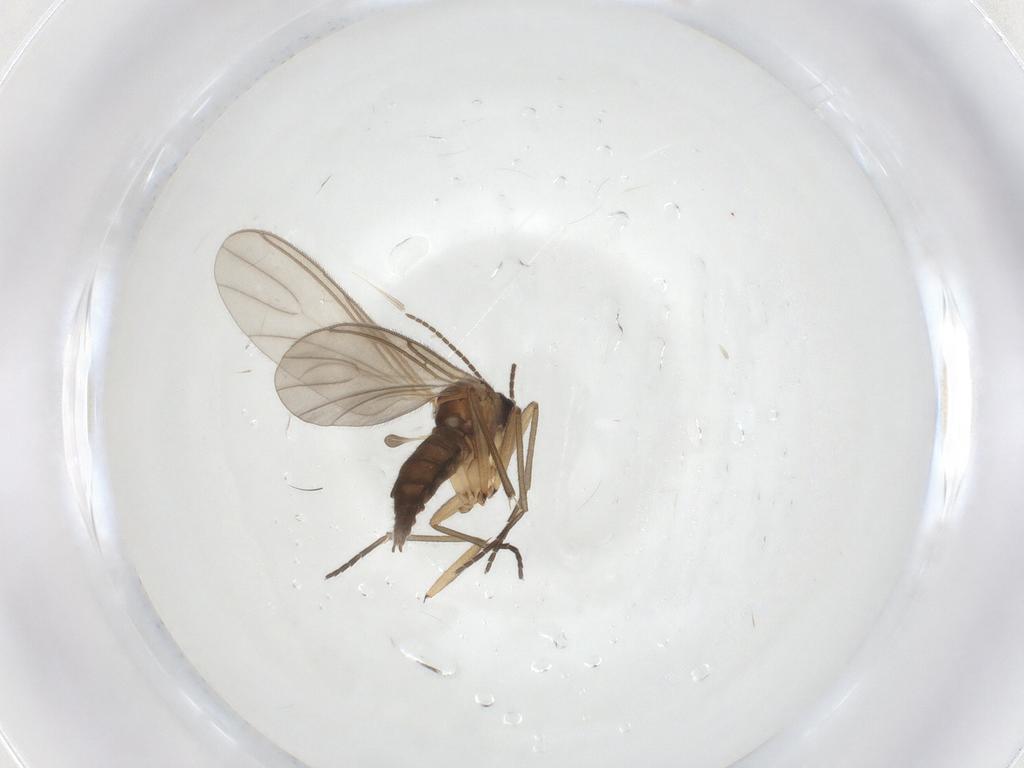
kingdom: Animalia
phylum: Arthropoda
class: Insecta
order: Diptera
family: Sciaridae
